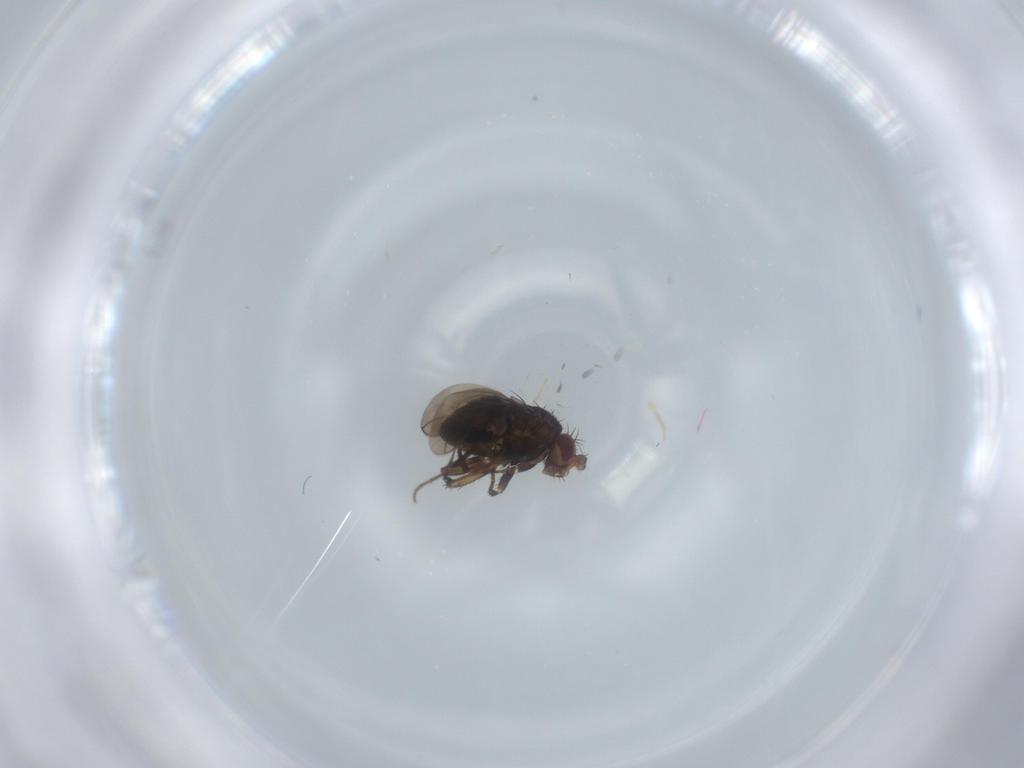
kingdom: Animalia
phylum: Arthropoda
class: Insecta
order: Diptera
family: Sphaeroceridae
